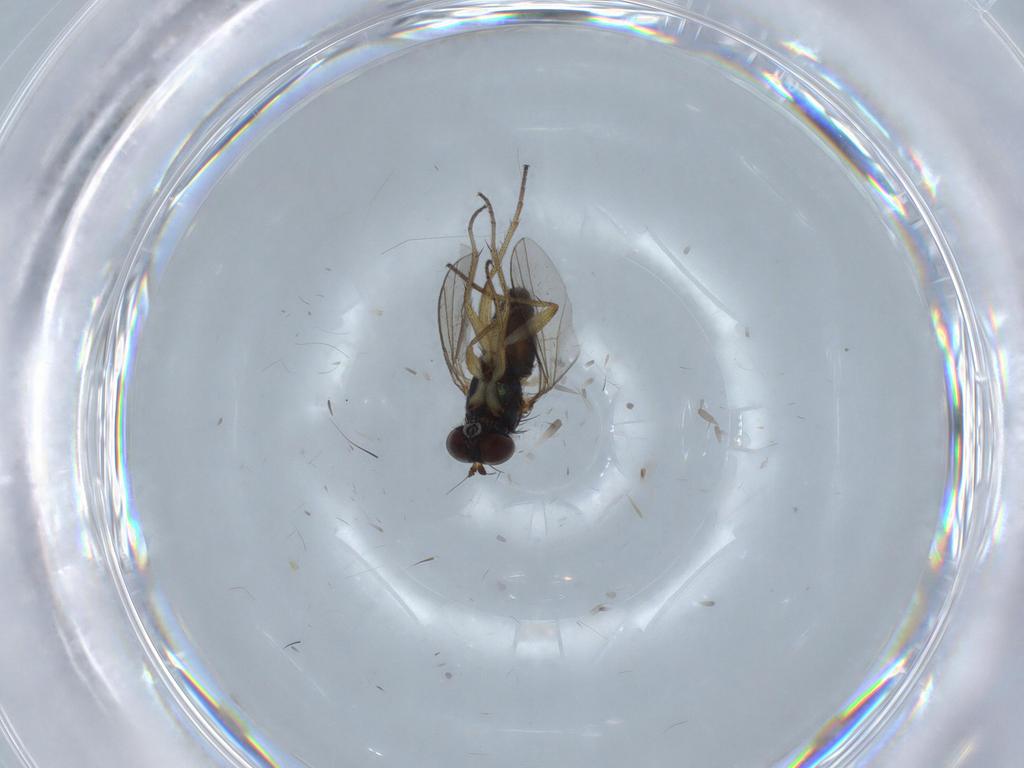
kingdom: Animalia
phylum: Arthropoda
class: Insecta
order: Diptera
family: Chironomidae
